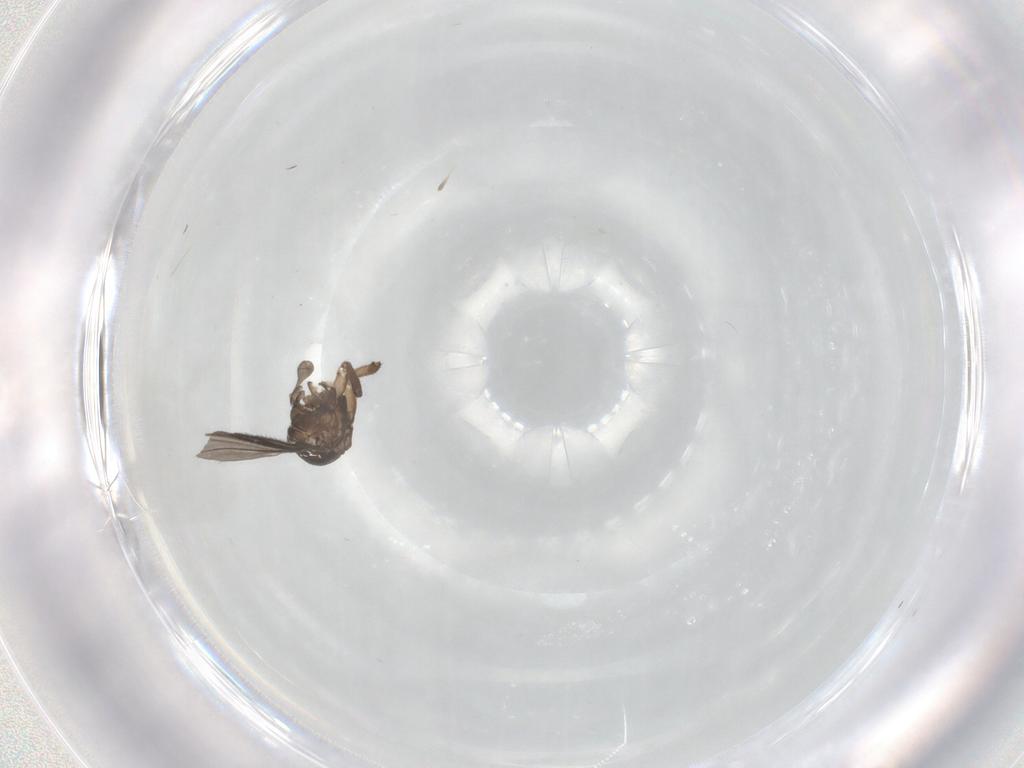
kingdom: Animalia
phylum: Arthropoda
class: Insecta
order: Diptera
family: Sciaridae
